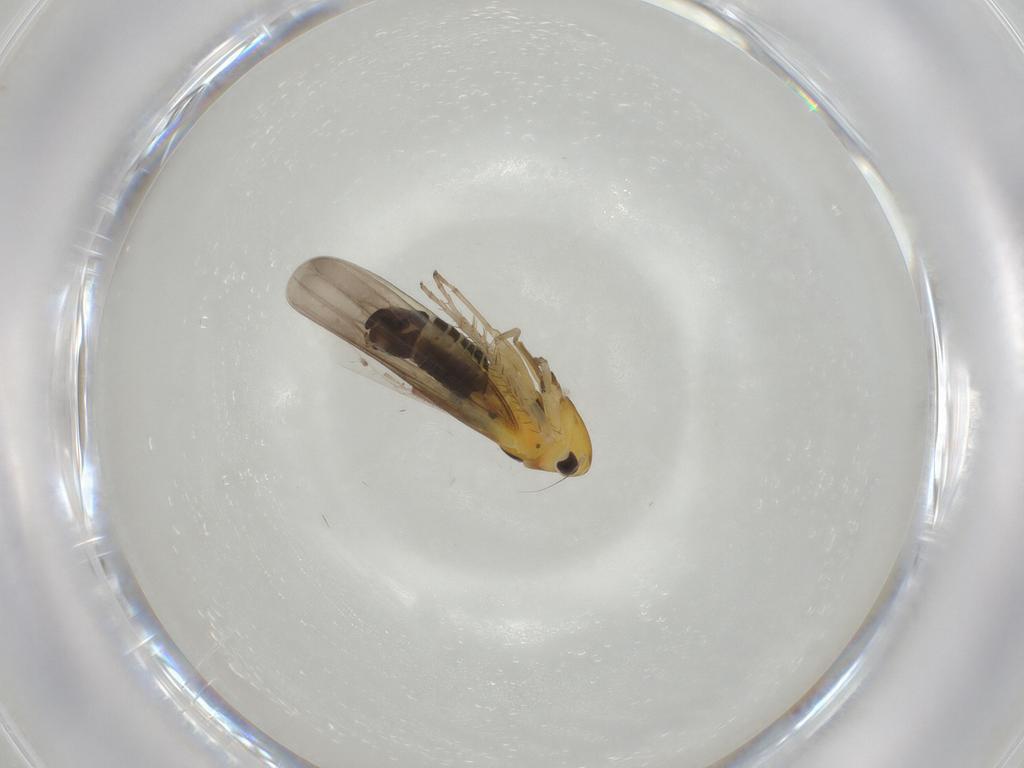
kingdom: Animalia
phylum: Arthropoda
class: Insecta
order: Hemiptera
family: Cicadellidae
